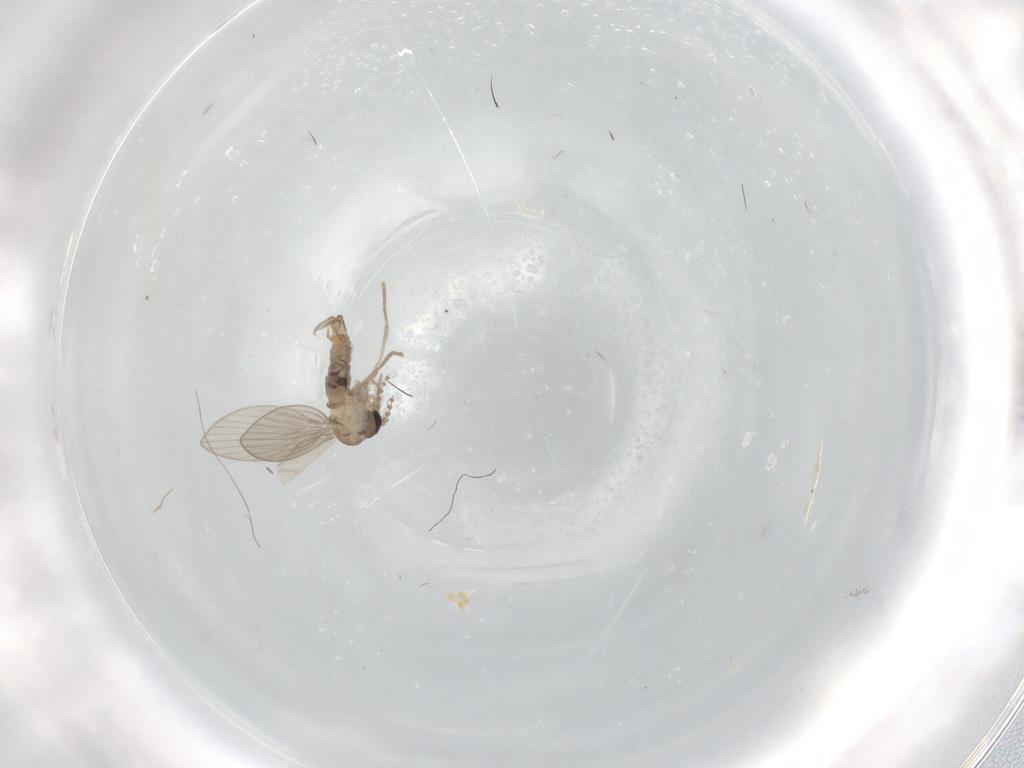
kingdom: Animalia
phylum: Arthropoda
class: Insecta
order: Diptera
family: Psychodidae
